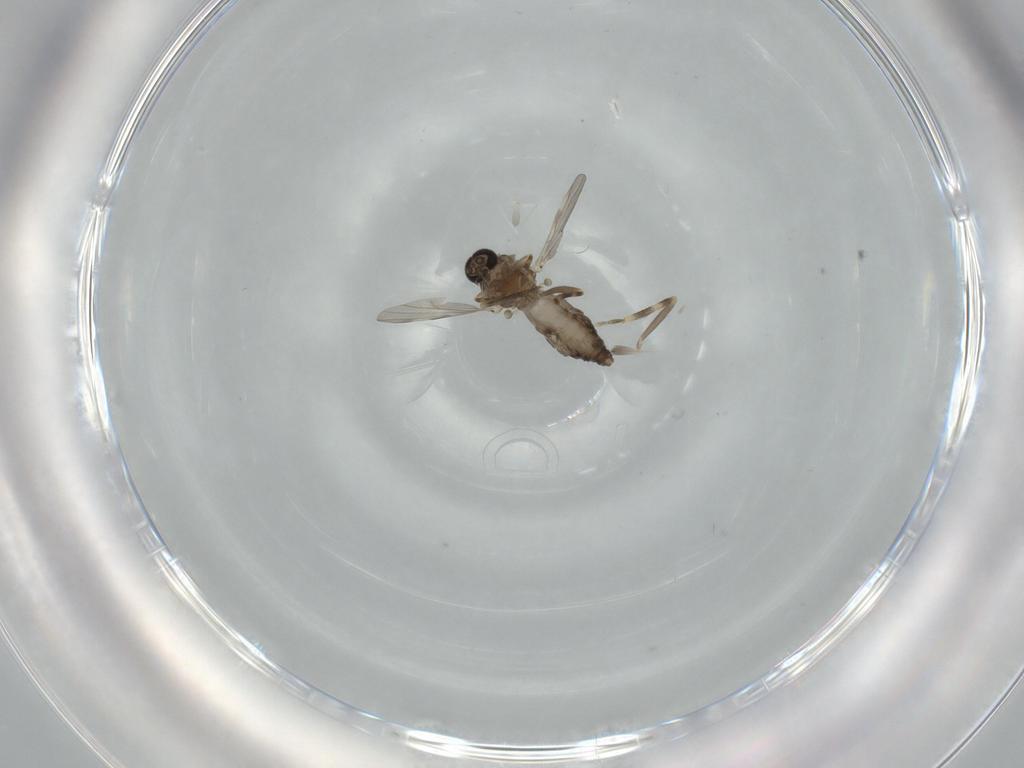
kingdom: Animalia
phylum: Arthropoda
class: Insecta
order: Diptera
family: Ceratopogonidae
